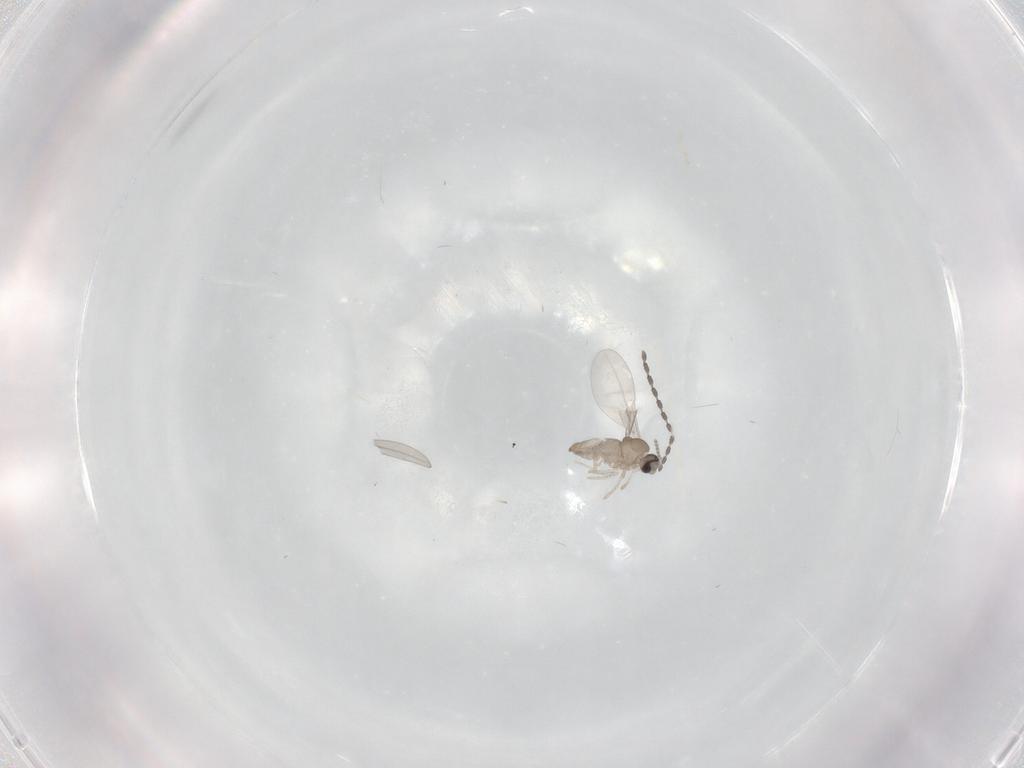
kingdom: Animalia
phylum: Arthropoda
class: Insecta
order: Diptera
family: Cecidomyiidae
